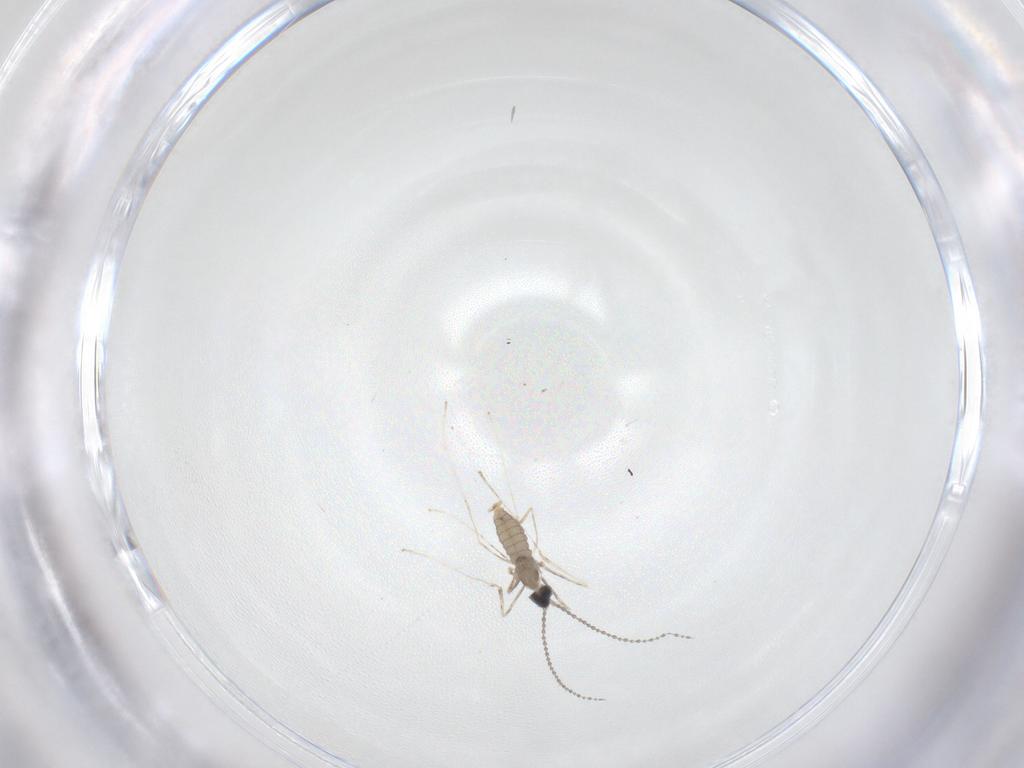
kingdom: Animalia
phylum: Arthropoda
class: Insecta
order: Diptera
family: Cecidomyiidae
